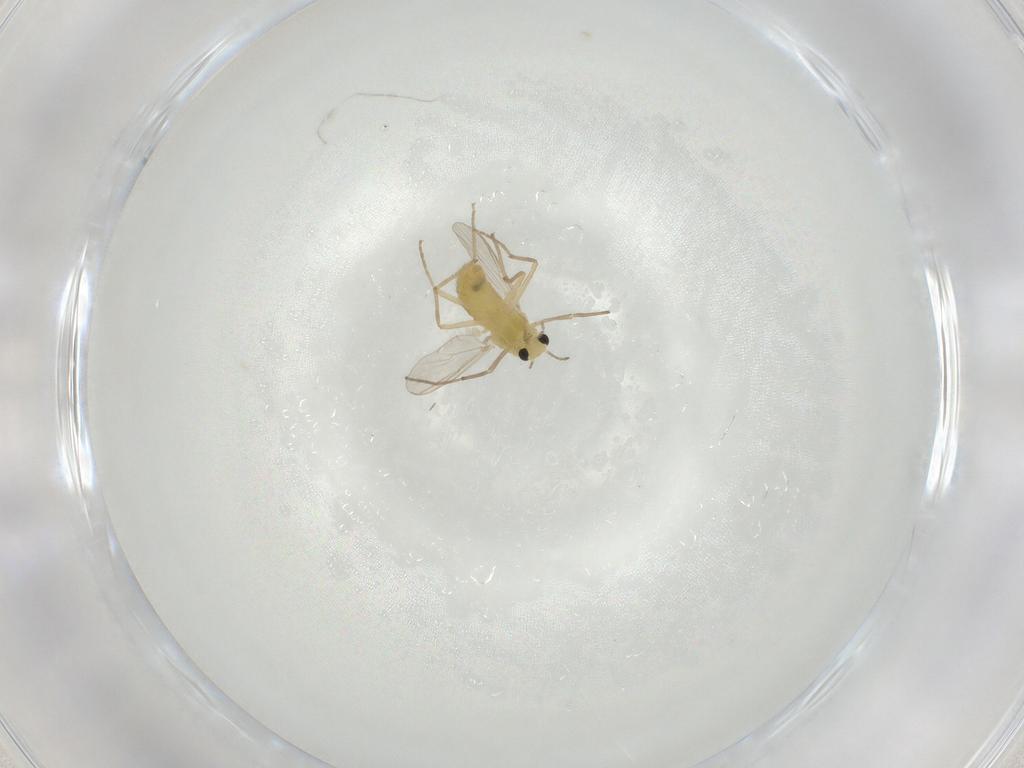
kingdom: Animalia
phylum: Arthropoda
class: Insecta
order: Diptera
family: Chironomidae
